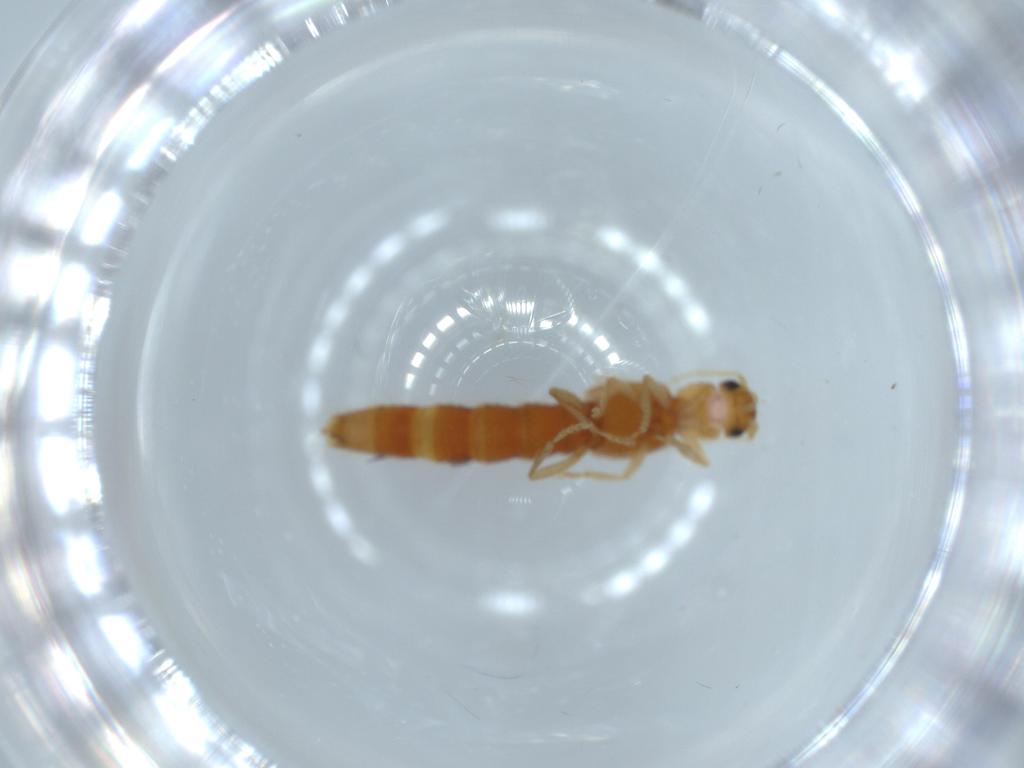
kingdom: Animalia
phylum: Arthropoda
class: Insecta
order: Coleoptera
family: Staphylinidae
